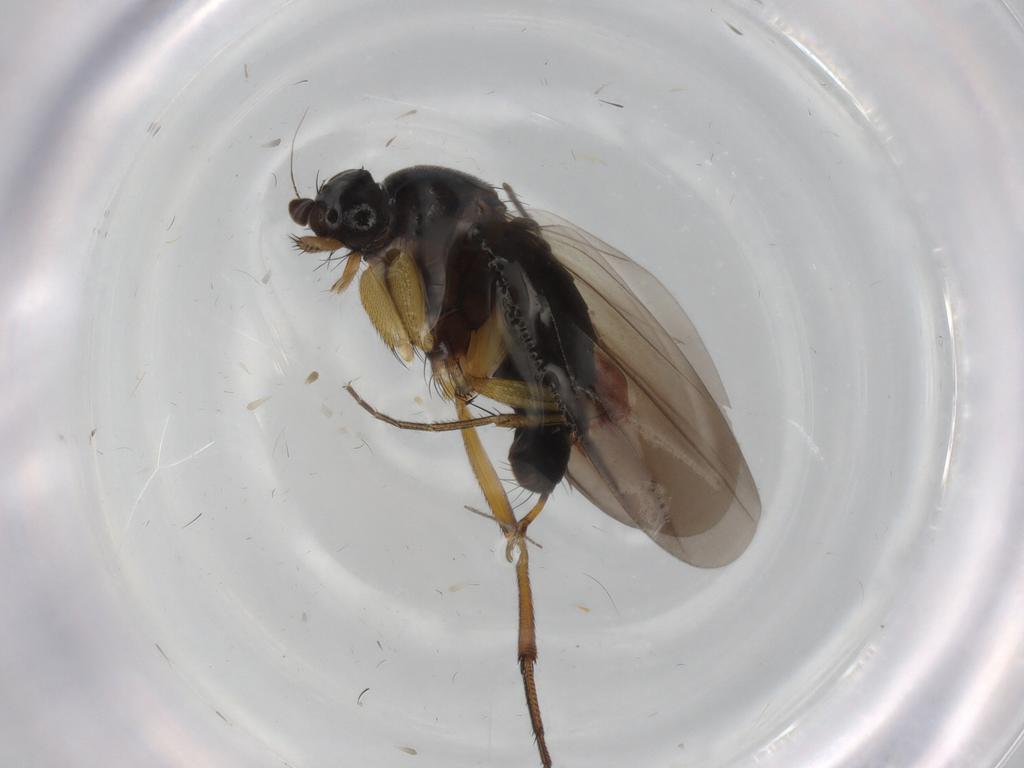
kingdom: Animalia
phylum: Arthropoda
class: Insecta
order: Diptera
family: Phoridae
